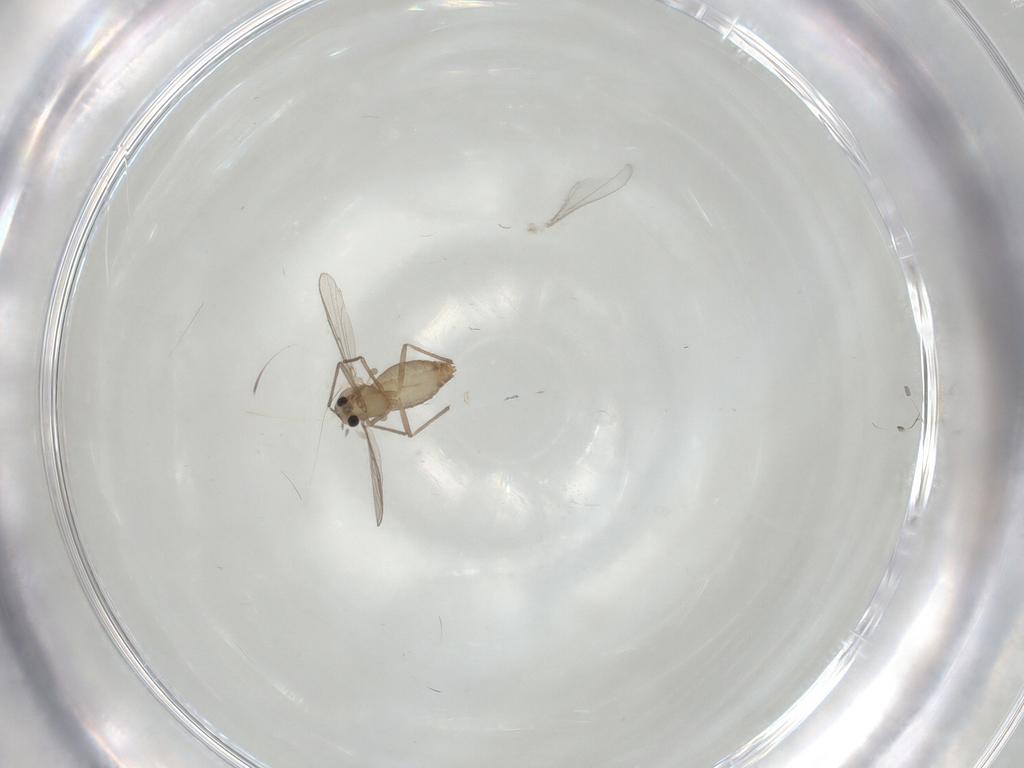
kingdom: Animalia
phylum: Arthropoda
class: Insecta
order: Diptera
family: Cecidomyiidae
